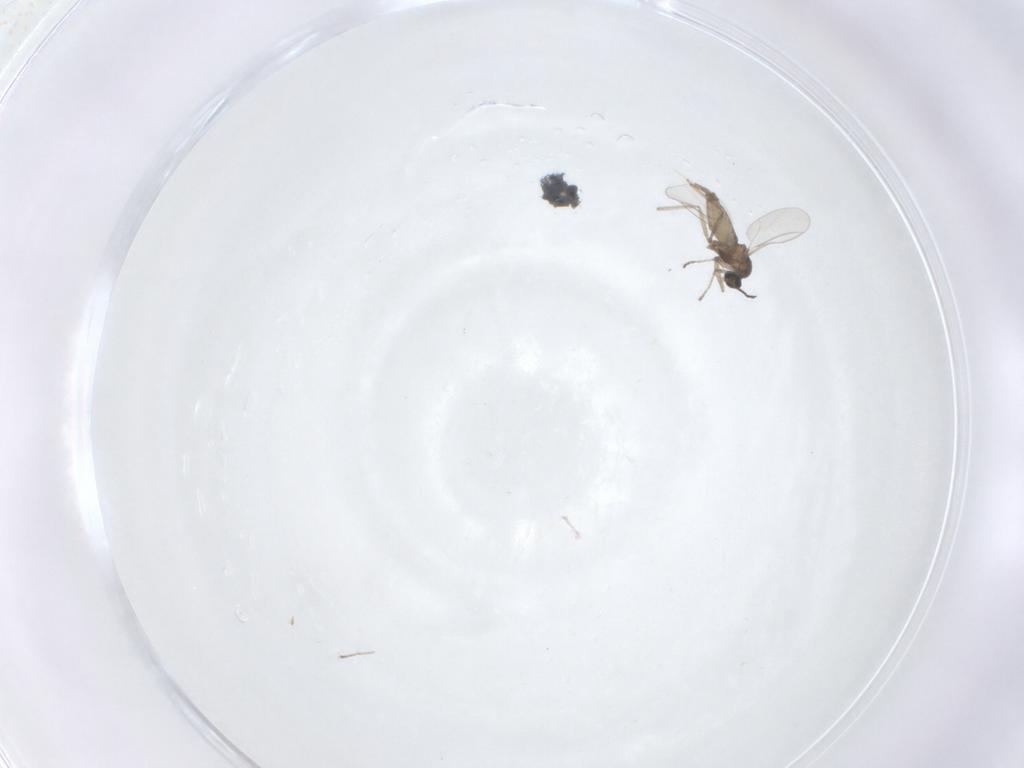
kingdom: Animalia
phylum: Arthropoda
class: Insecta
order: Diptera
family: Cecidomyiidae
